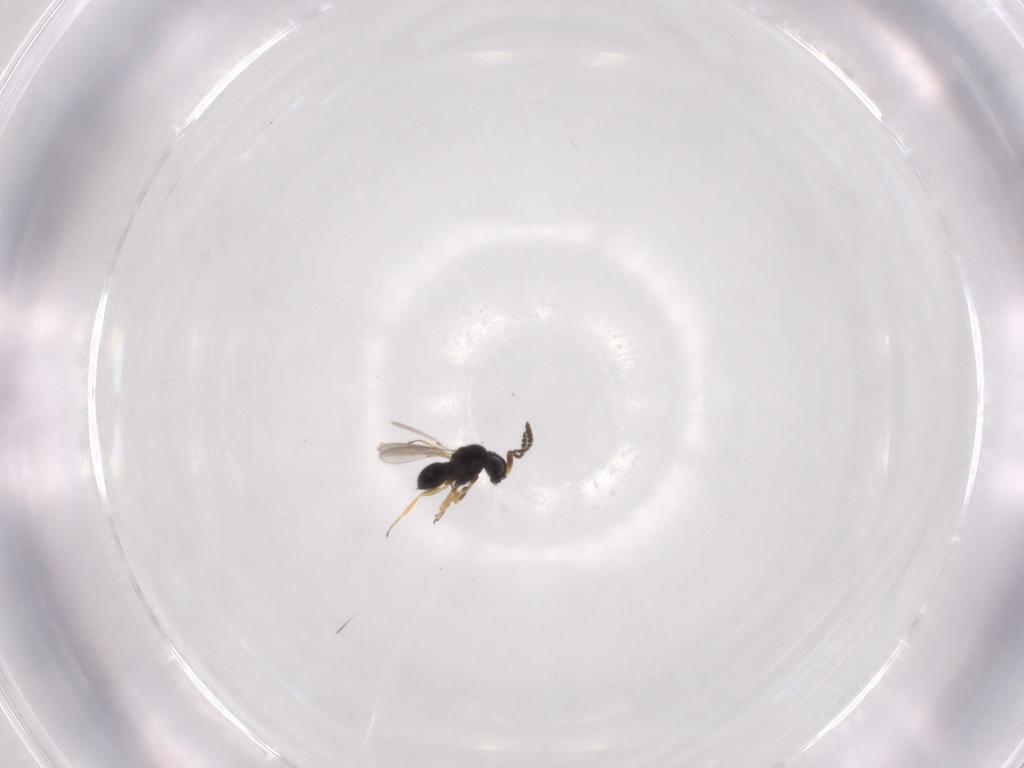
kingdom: Animalia
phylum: Arthropoda
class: Insecta
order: Hymenoptera
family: Scelionidae
